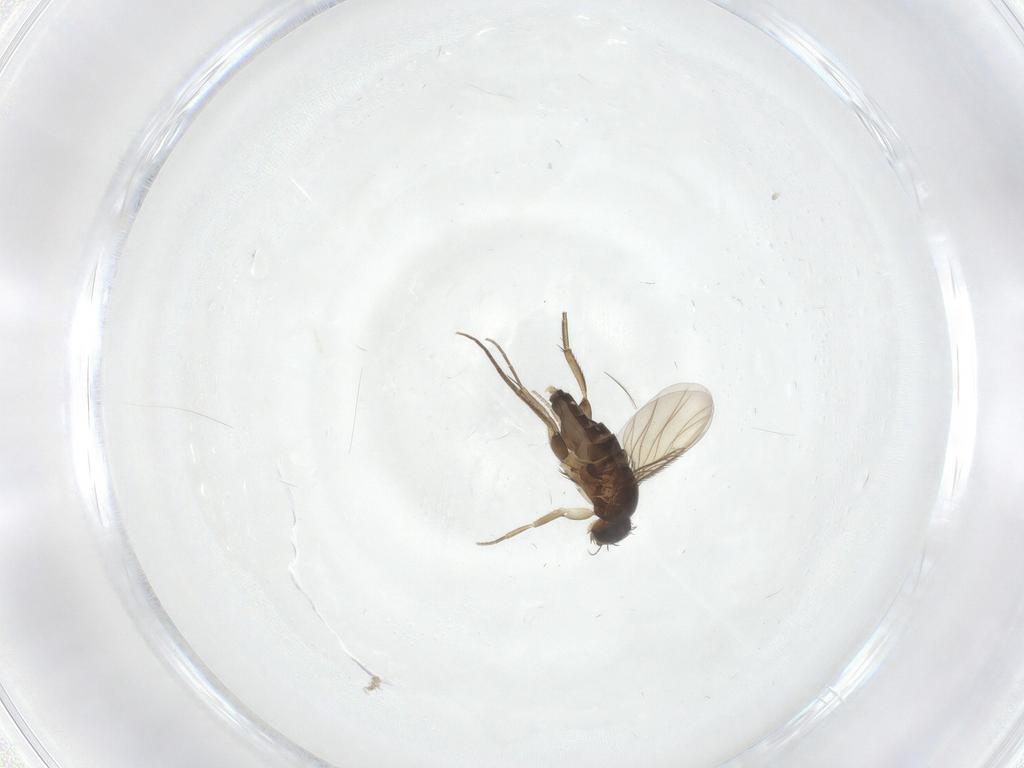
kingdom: Animalia
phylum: Arthropoda
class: Insecta
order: Diptera
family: Phoridae
